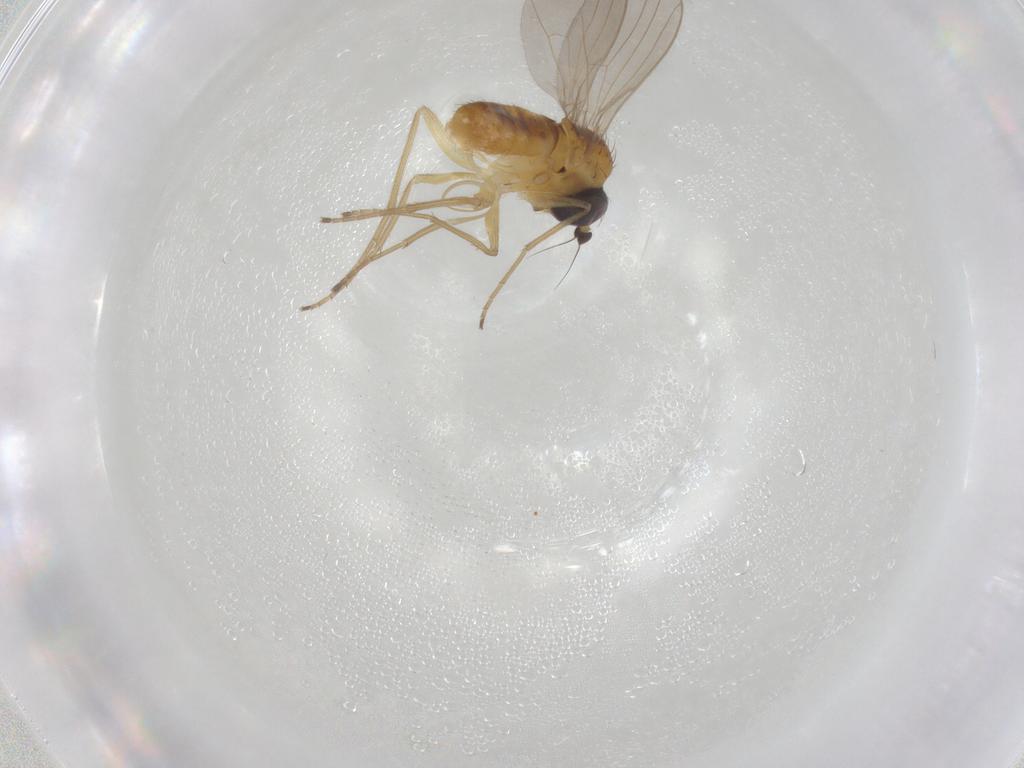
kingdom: Animalia
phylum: Arthropoda
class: Insecta
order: Diptera
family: Dolichopodidae
